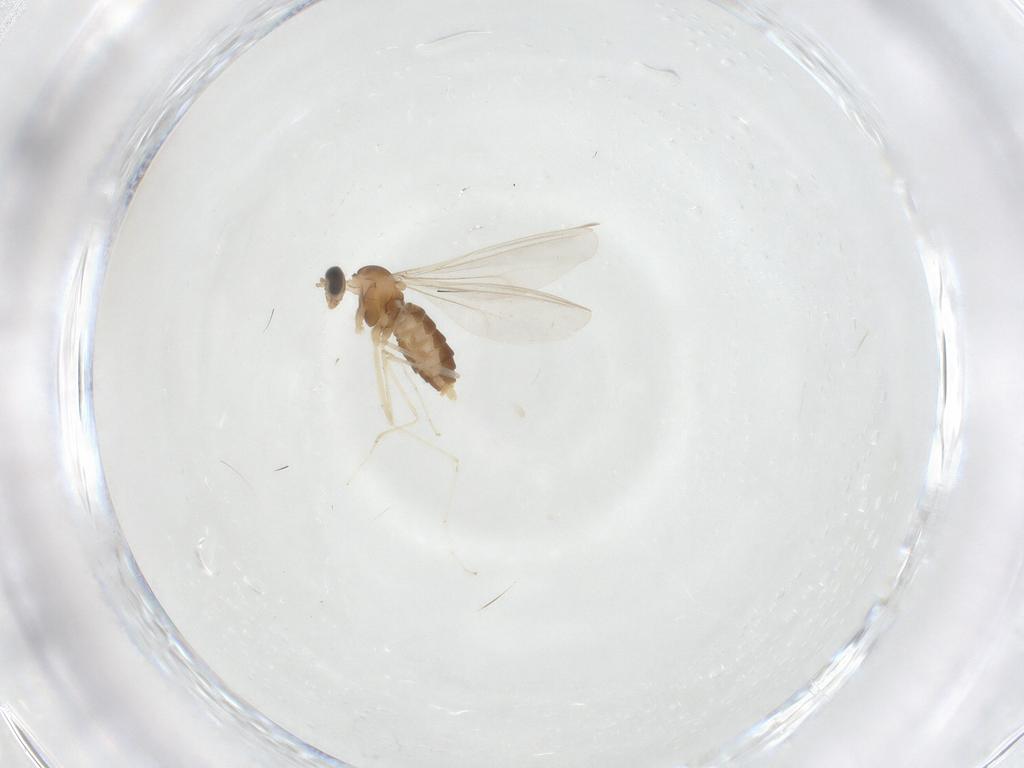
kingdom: Animalia
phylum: Arthropoda
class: Insecta
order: Diptera
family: Cecidomyiidae
